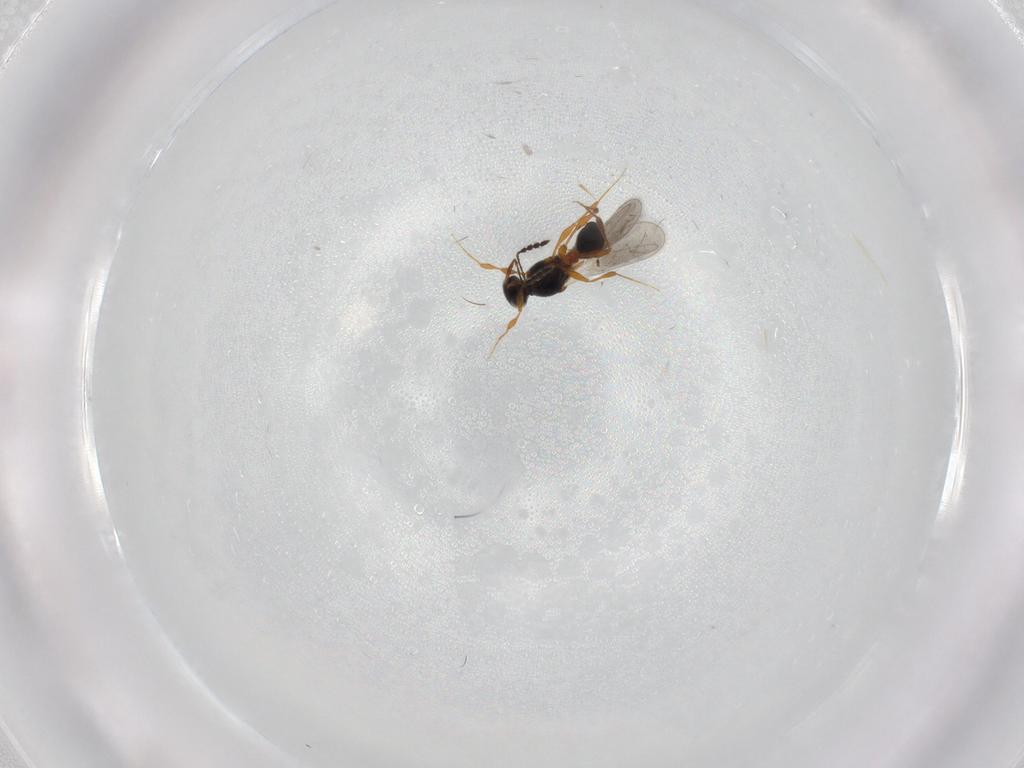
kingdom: Animalia
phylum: Arthropoda
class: Insecta
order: Hymenoptera
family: Platygastridae
